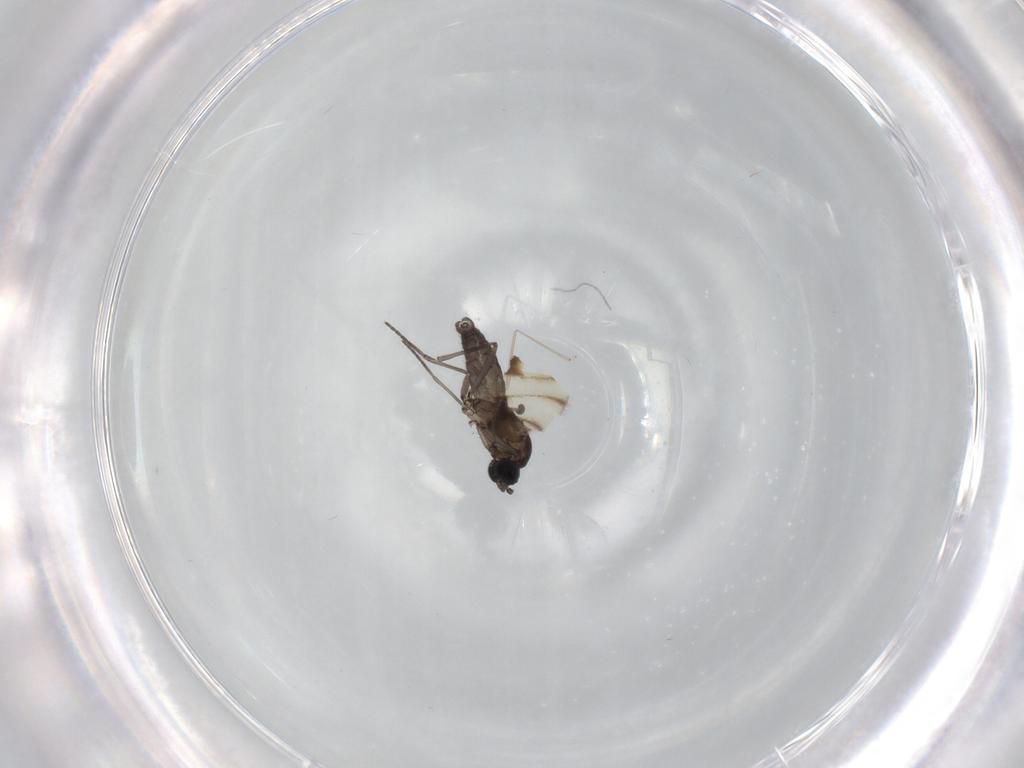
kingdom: Animalia
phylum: Arthropoda
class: Insecta
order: Diptera
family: Cecidomyiidae
